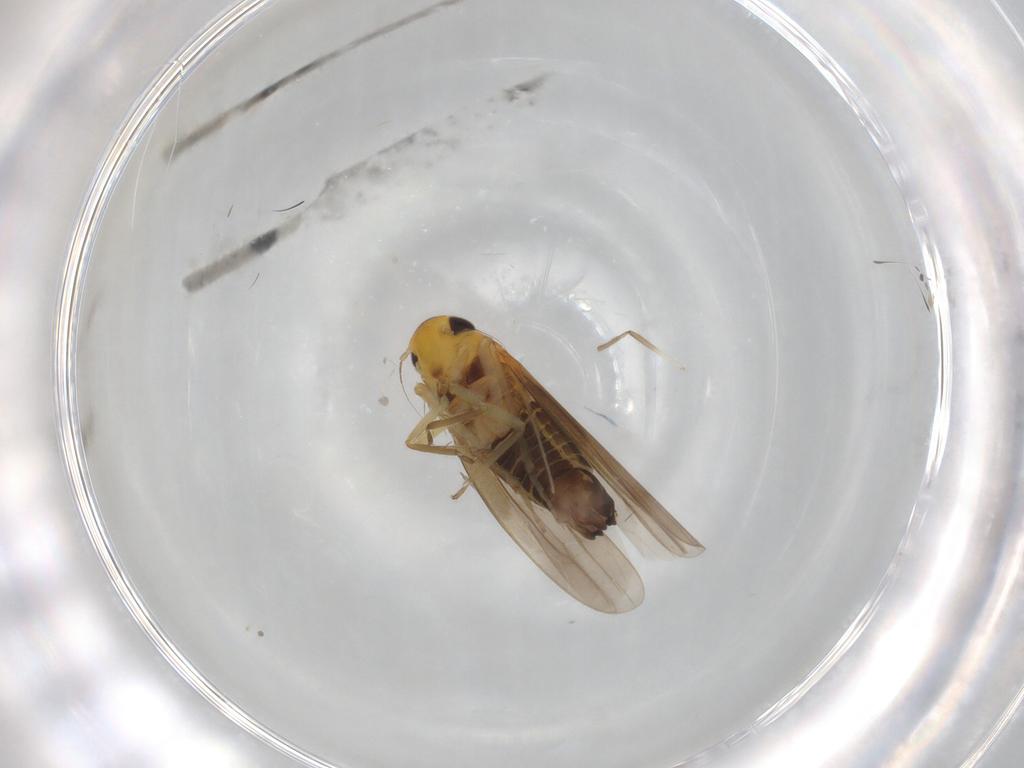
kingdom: Animalia
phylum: Arthropoda
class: Insecta
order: Hemiptera
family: Cicadellidae
